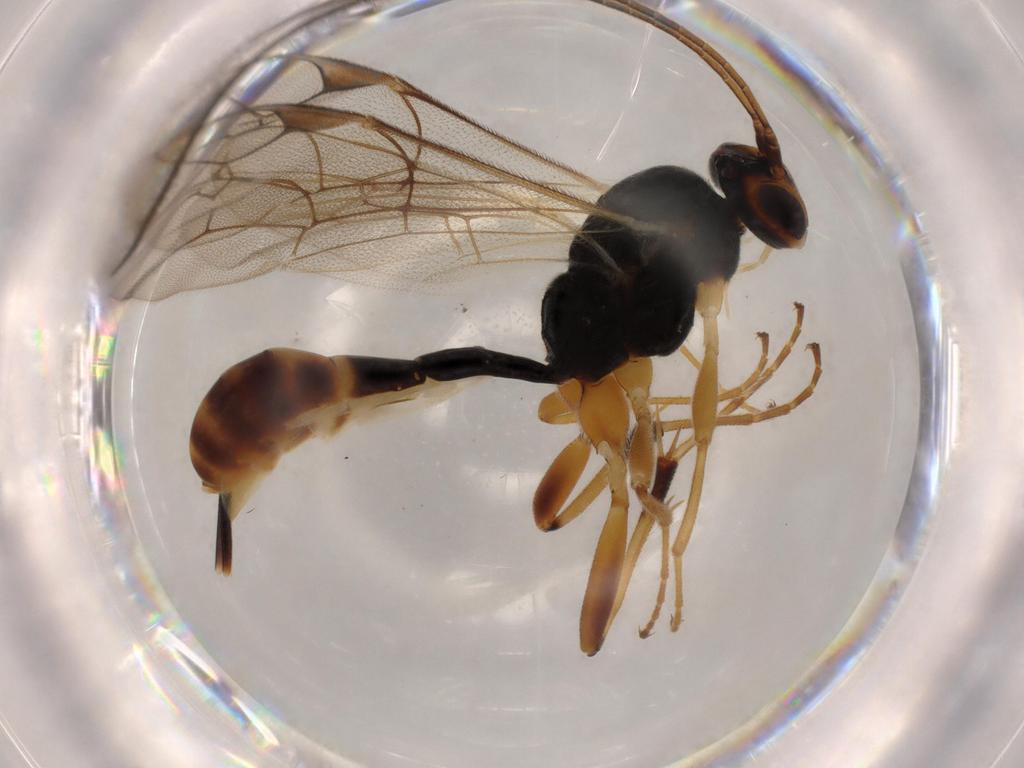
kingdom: Animalia
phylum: Arthropoda
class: Insecta
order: Hymenoptera
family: Ichneumonidae
